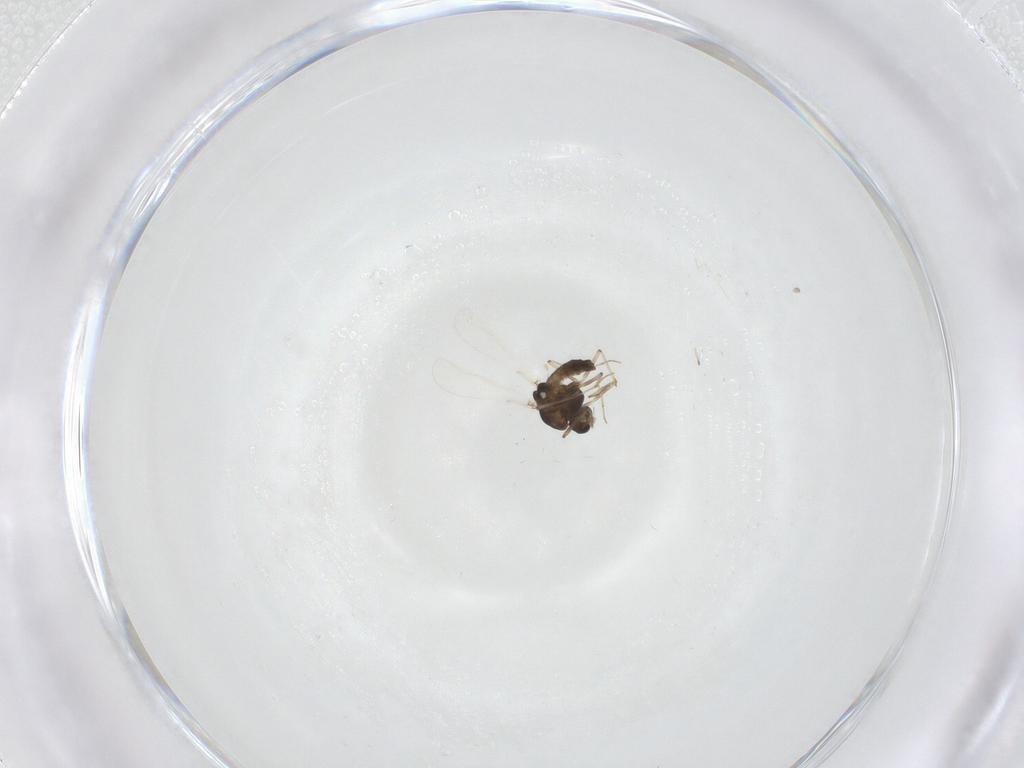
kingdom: Animalia
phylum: Arthropoda
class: Insecta
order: Diptera
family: Chironomidae
